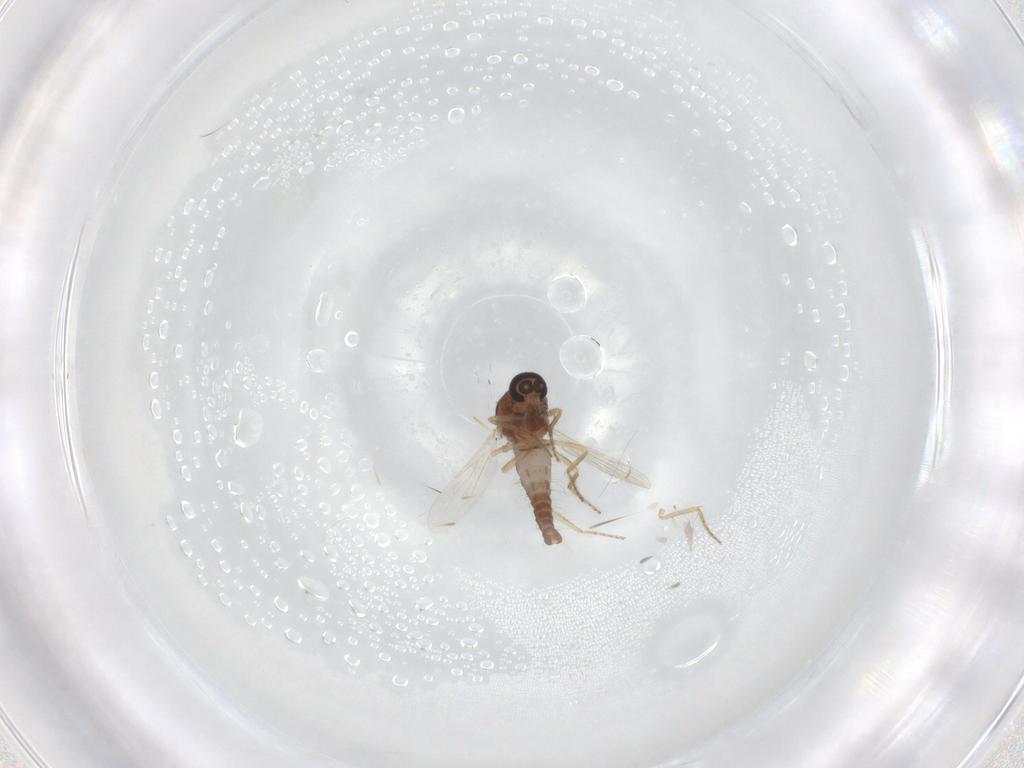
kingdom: Animalia
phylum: Arthropoda
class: Insecta
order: Diptera
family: Ceratopogonidae
